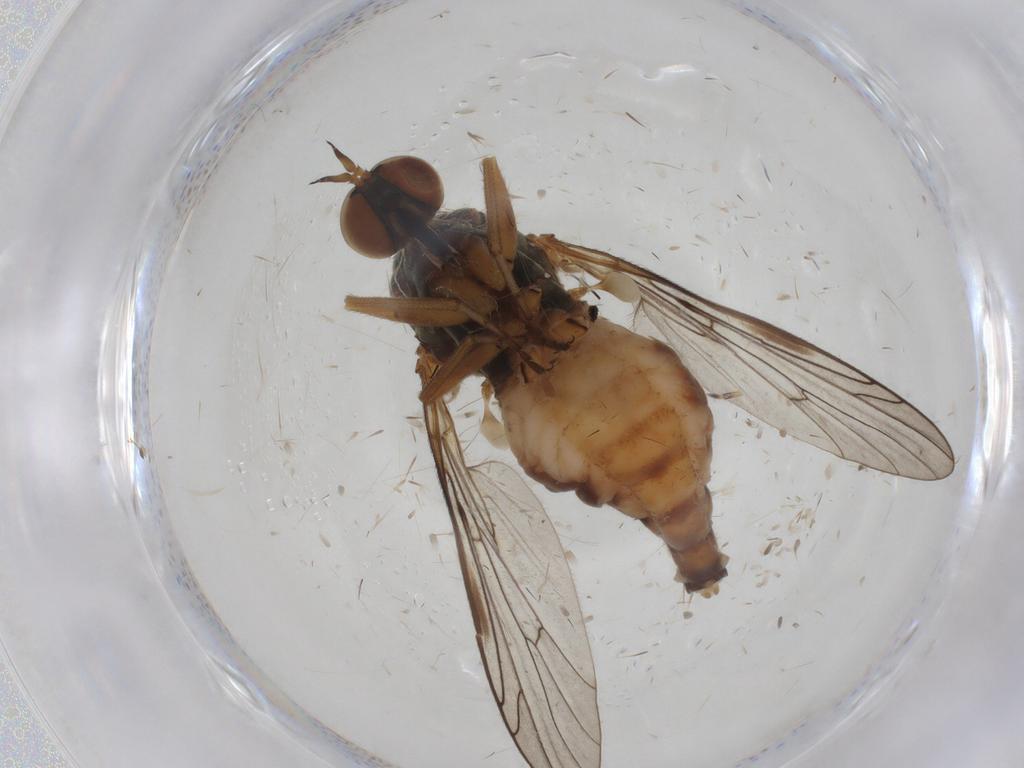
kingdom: Animalia
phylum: Arthropoda
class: Insecta
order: Diptera
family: Empididae
